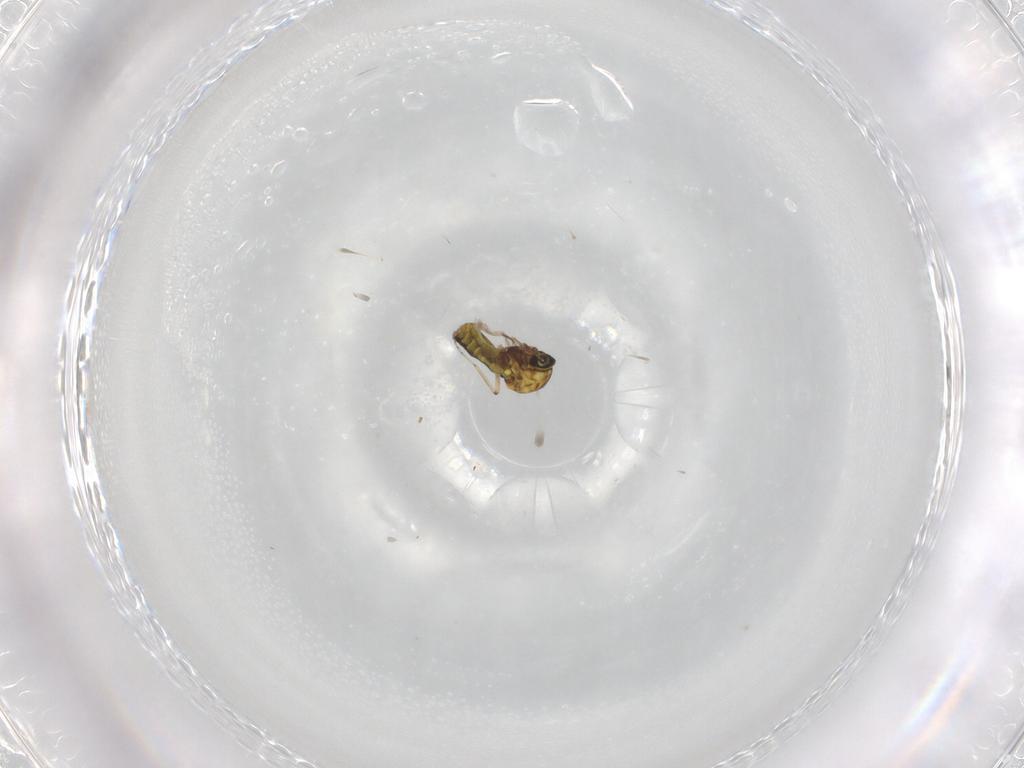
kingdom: Animalia
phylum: Arthropoda
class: Insecta
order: Diptera
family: Ceratopogonidae
